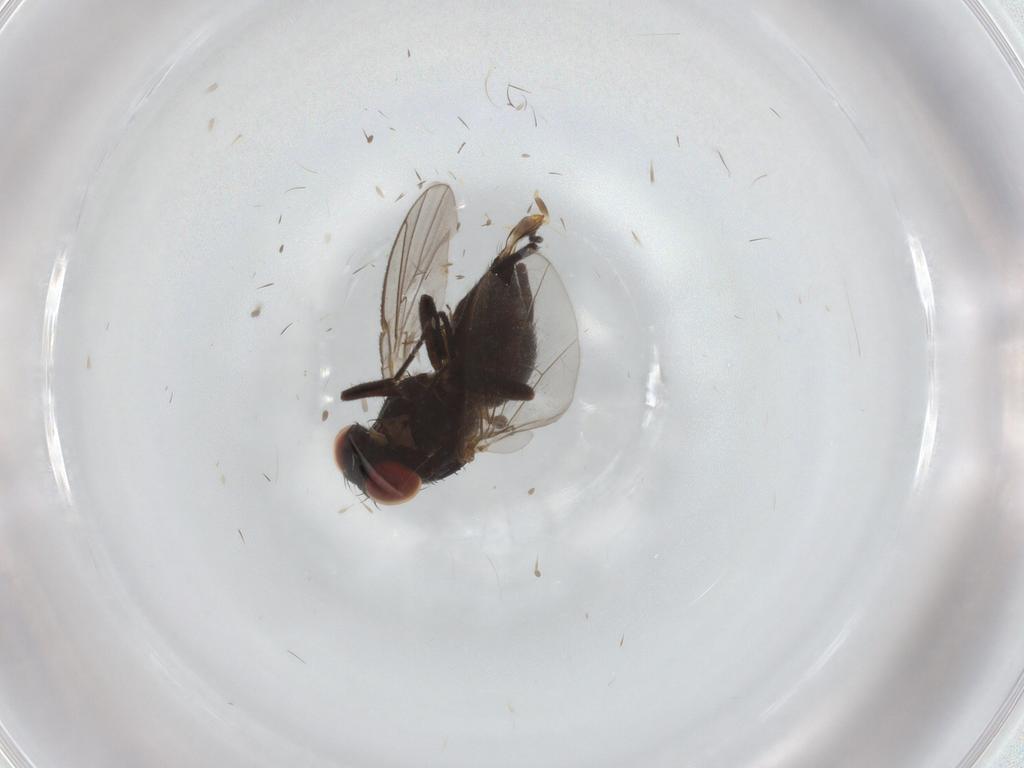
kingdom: Animalia
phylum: Arthropoda
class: Insecta
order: Diptera
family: Agromyzidae
